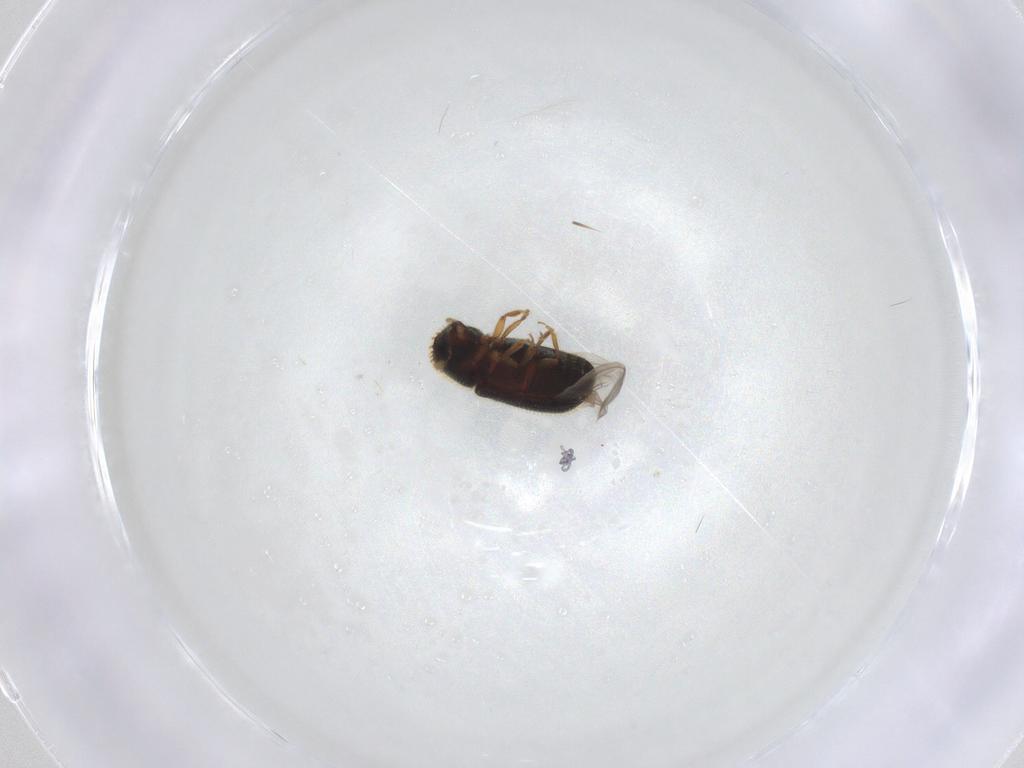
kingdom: Animalia
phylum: Arthropoda
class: Insecta
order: Coleoptera
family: Curculionidae
